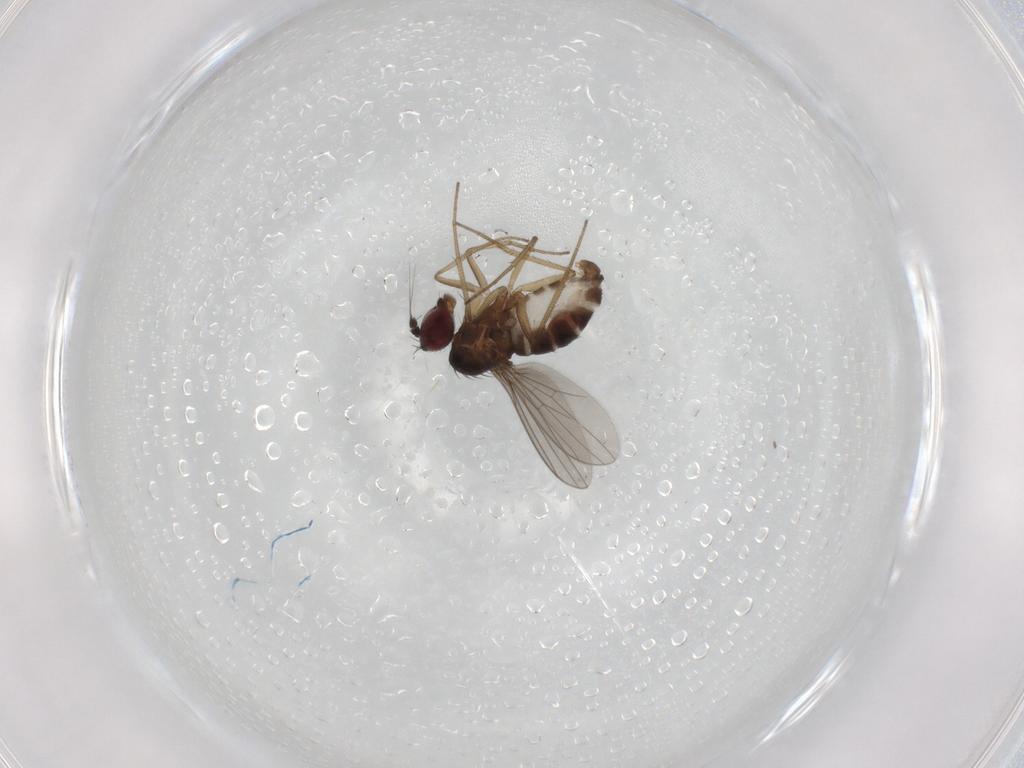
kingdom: Animalia
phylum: Arthropoda
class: Insecta
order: Diptera
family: Dolichopodidae
